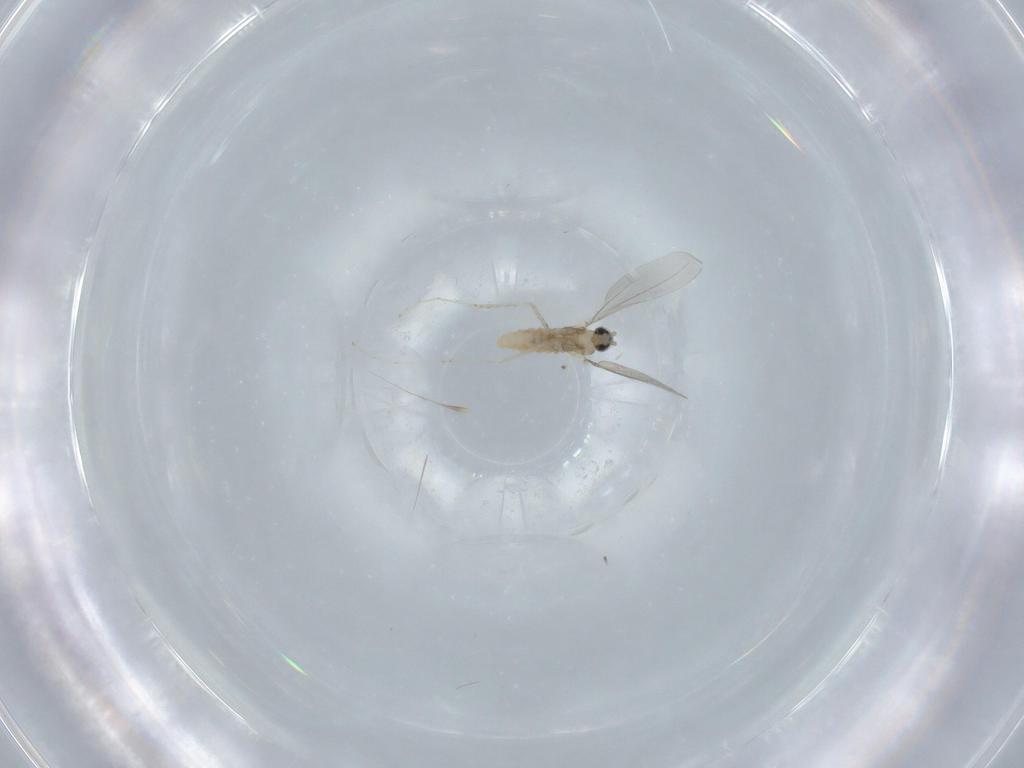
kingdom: Animalia
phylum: Arthropoda
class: Insecta
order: Diptera
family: Cecidomyiidae
